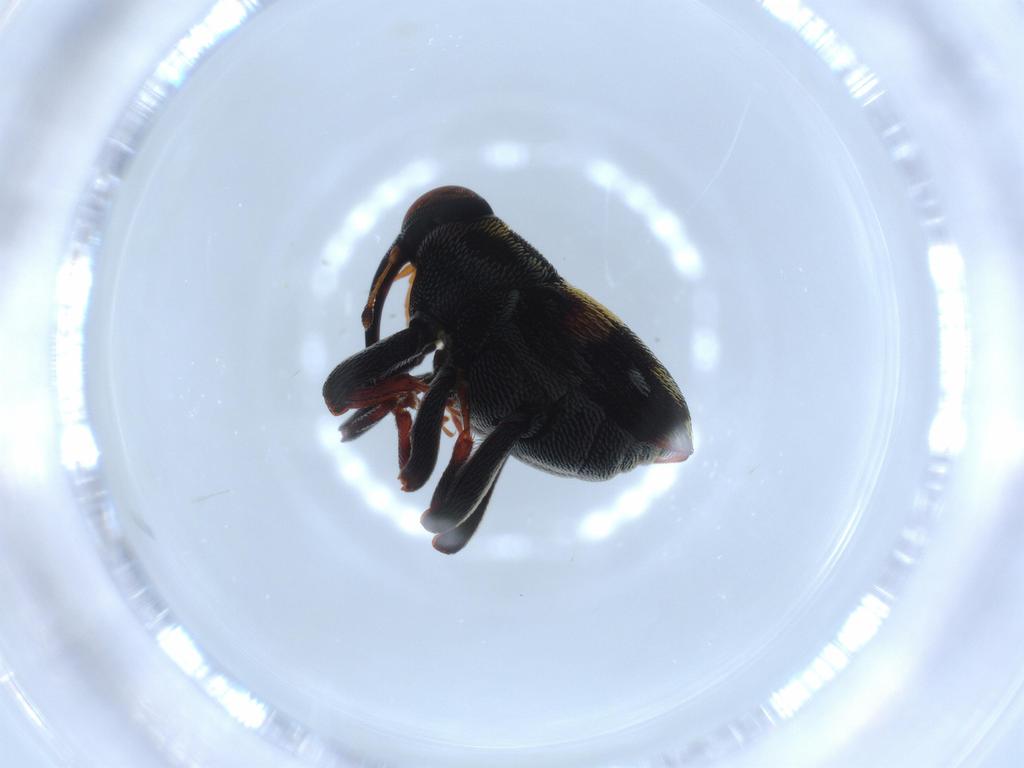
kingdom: Animalia
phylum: Arthropoda
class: Insecta
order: Coleoptera
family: Curculionidae
